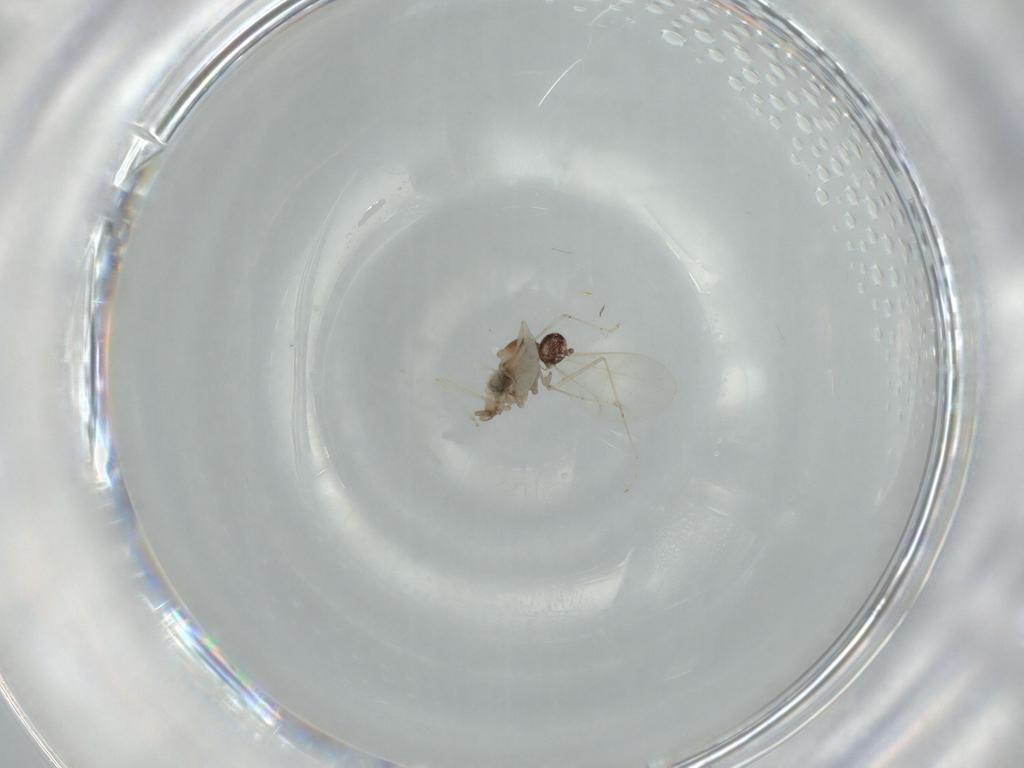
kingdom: Animalia
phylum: Arthropoda
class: Insecta
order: Diptera
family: Cecidomyiidae
